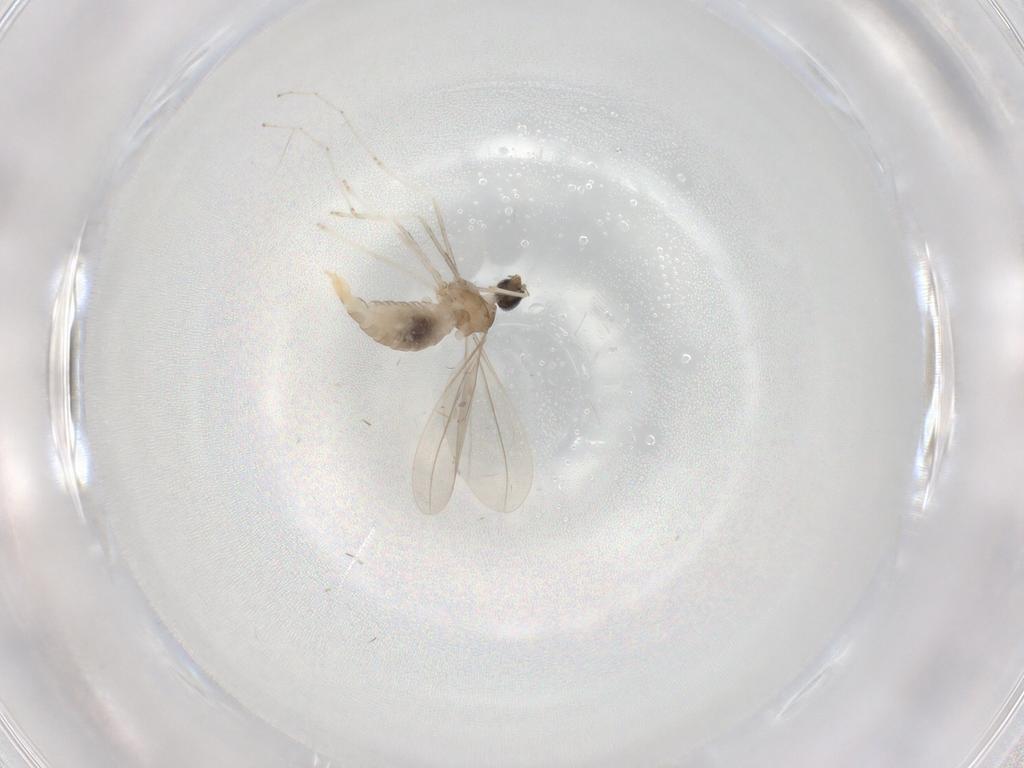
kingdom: Animalia
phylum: Arthropoda
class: Insecta
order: Diptera
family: Cecidomyiidae
